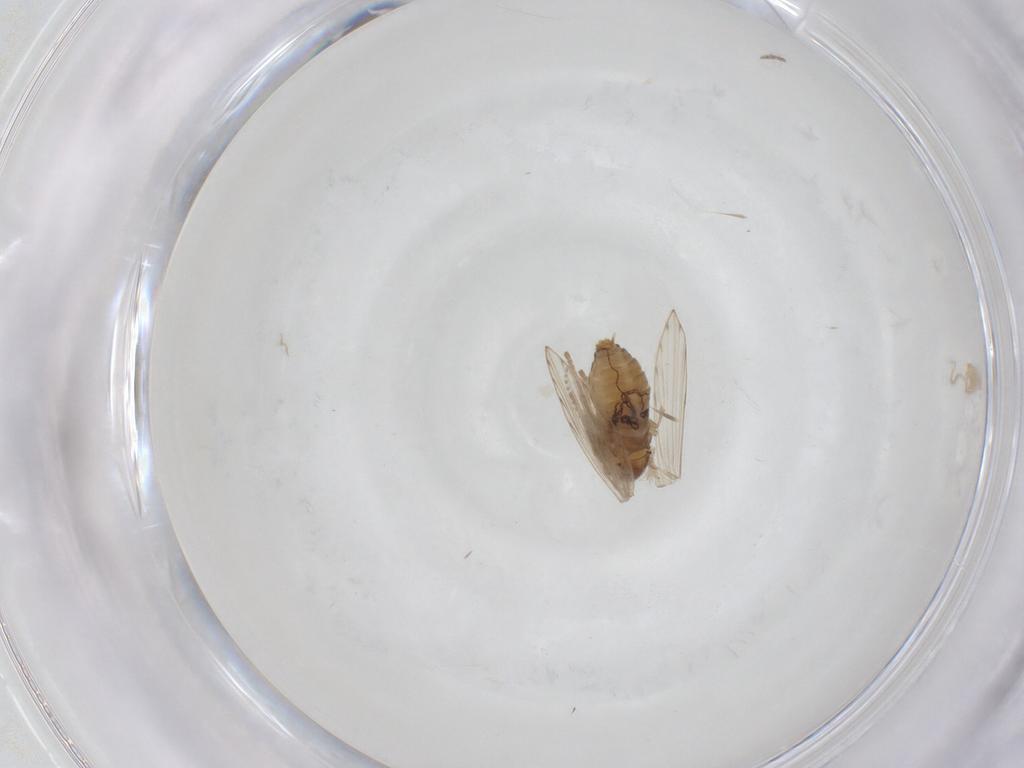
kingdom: Animalia
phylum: Arthropoda
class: Insecta
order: Diptera
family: Psychodidae
